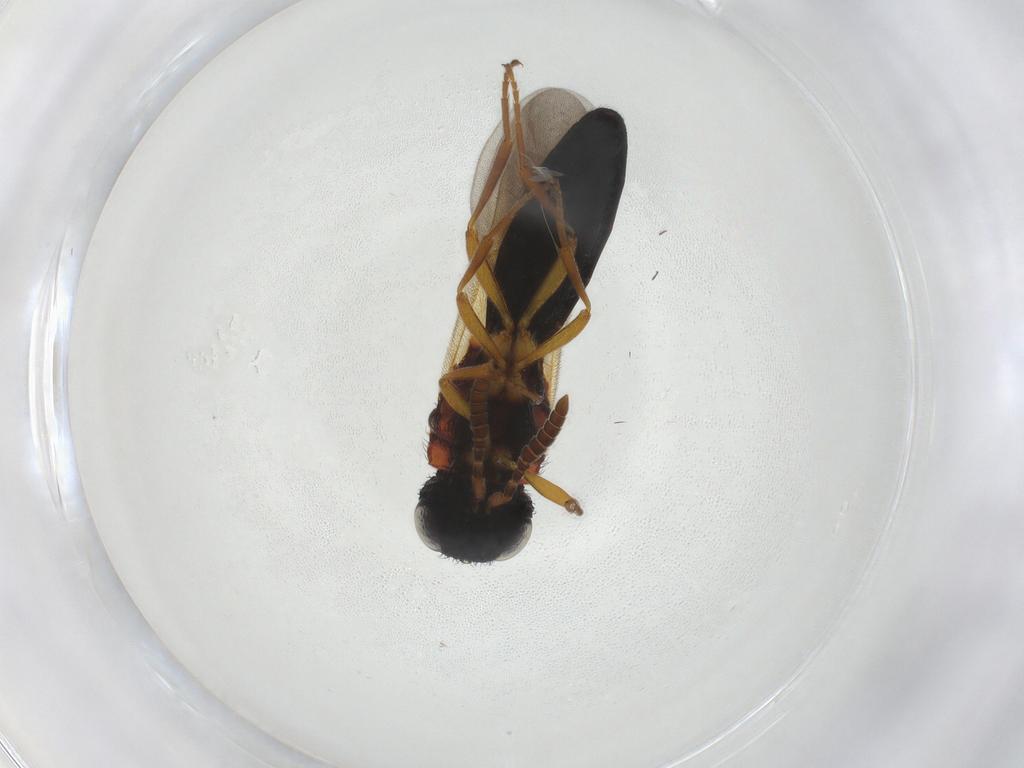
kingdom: Animalia
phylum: Arthropoda
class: Insecta
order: Hymenoptera
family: Scelionidae
